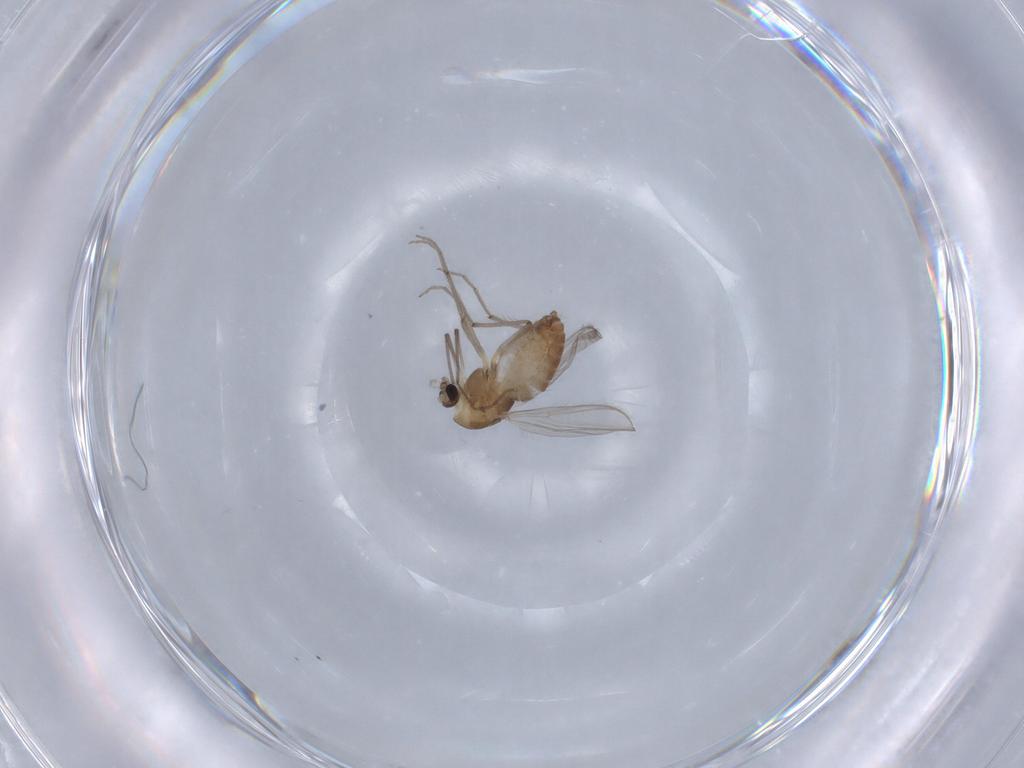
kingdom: Animalia
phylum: Arthropoda
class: Insecta
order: Diptera
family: Chironomidae
